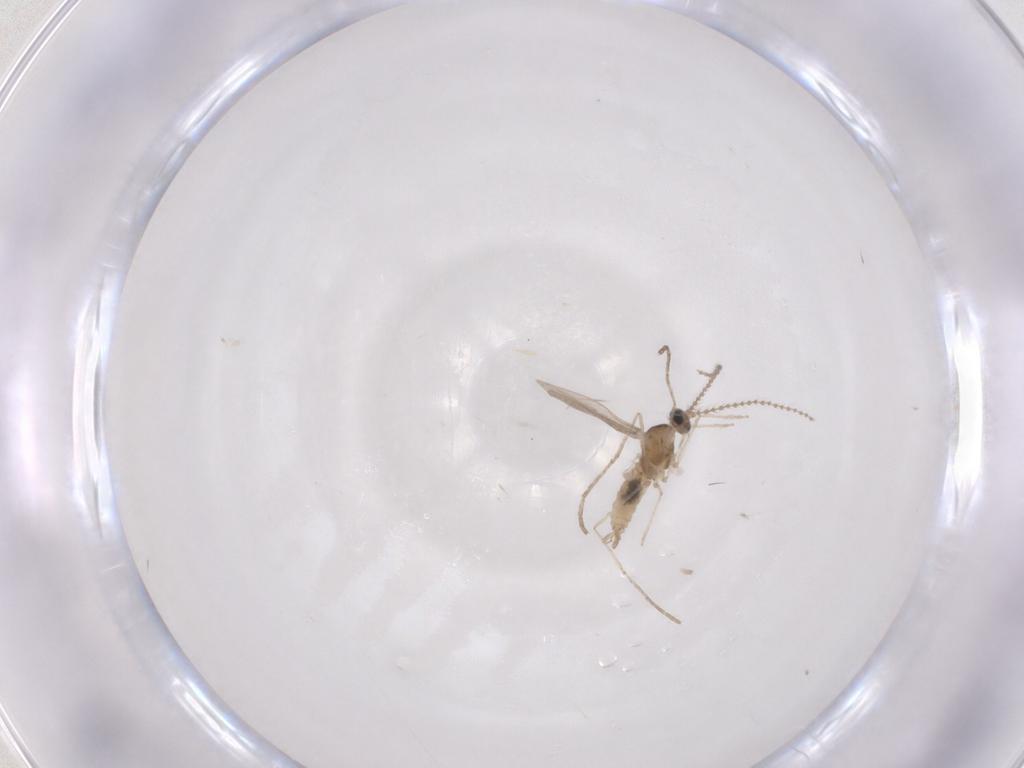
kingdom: Animalia
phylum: Arthropoda
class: Insecta
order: Diptera
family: Cecidomyiidae
